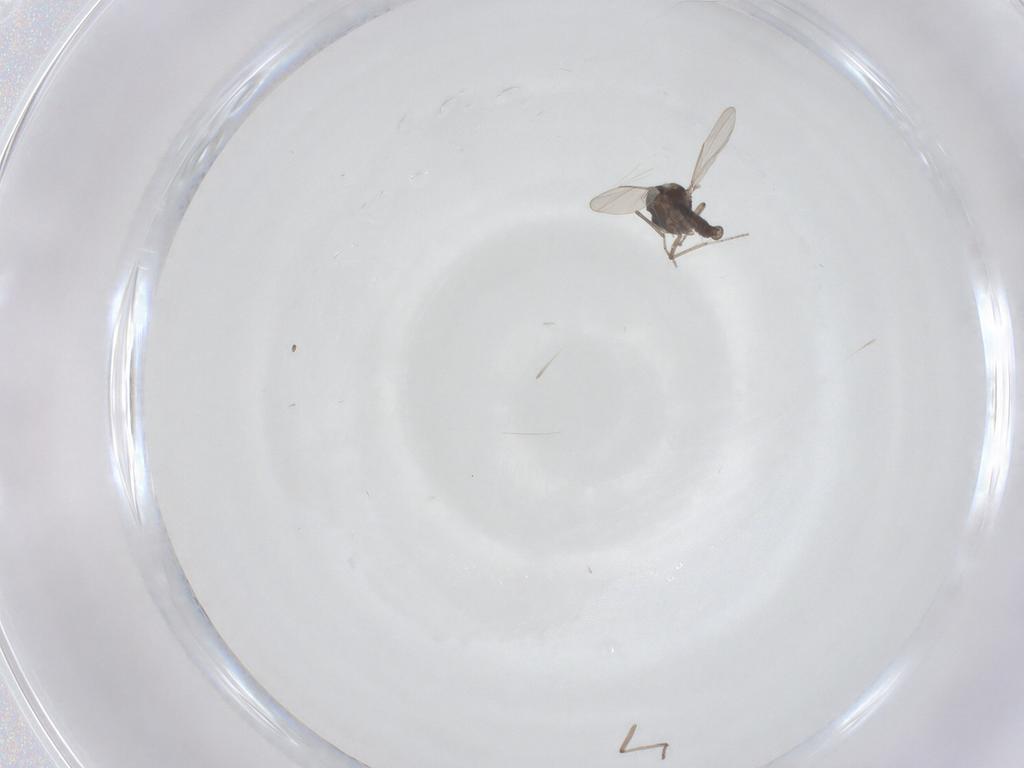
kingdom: Animalia
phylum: Arthropoda
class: Insecta
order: Diptera
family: Ceratopogonidae
